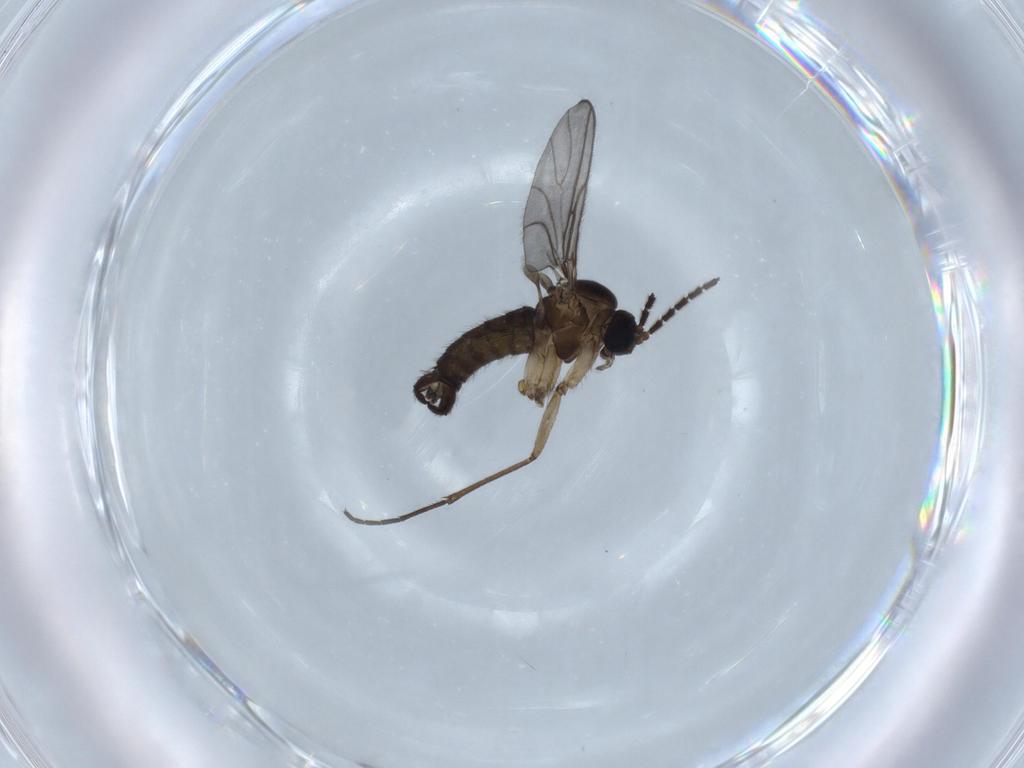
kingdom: Animalia
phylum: Arthropoda
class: Insecta
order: Diptera
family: Sciaridae
